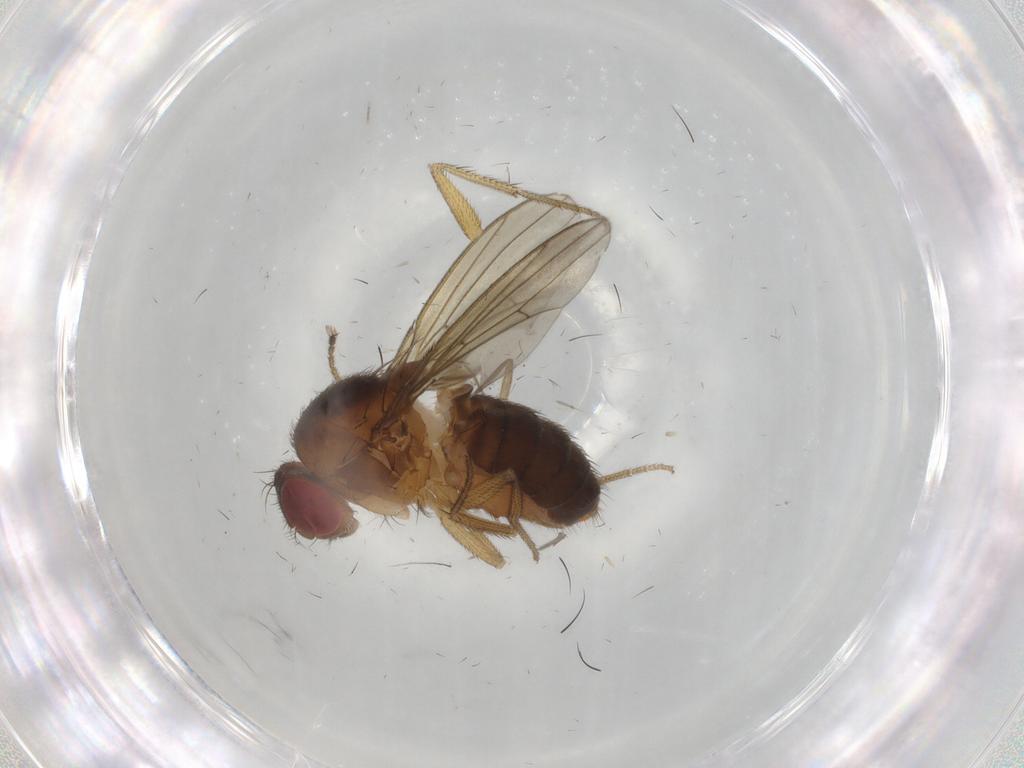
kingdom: Animalia
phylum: Arthropoda
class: Insecta
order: Diptera
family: Drosophilidae
